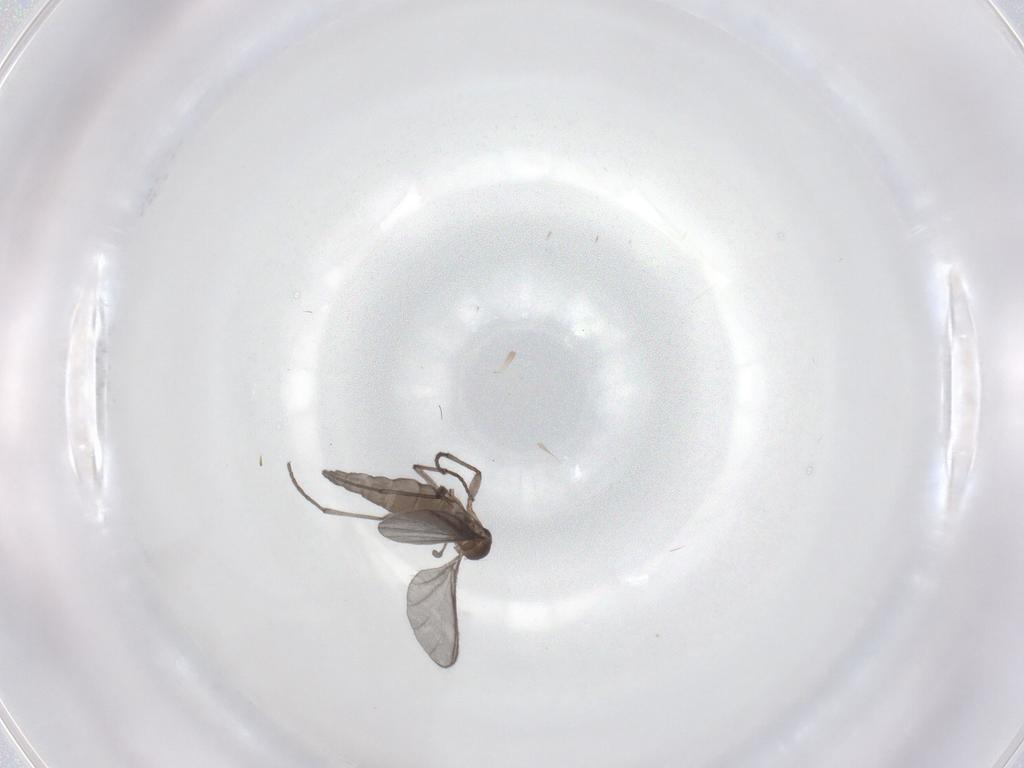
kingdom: Animalia
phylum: Arthropoda
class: Insecta
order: Diptera
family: Sciaridae
